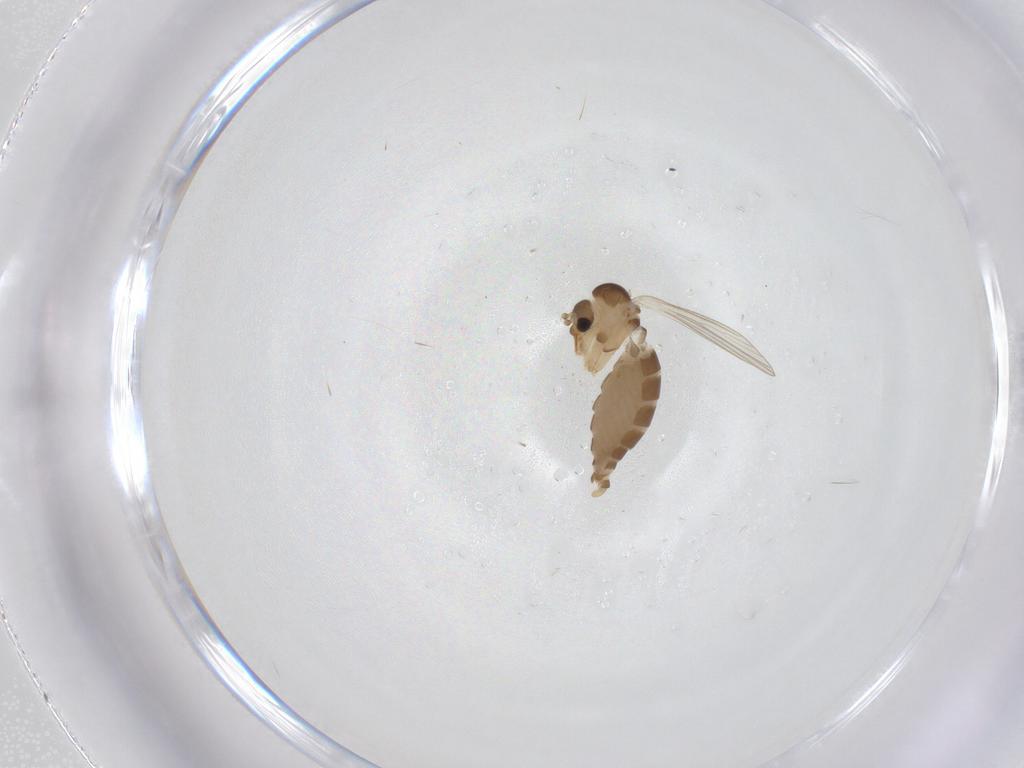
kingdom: Animalia
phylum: Arthropoda
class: Insecta
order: Diptera
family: Psychodidae
